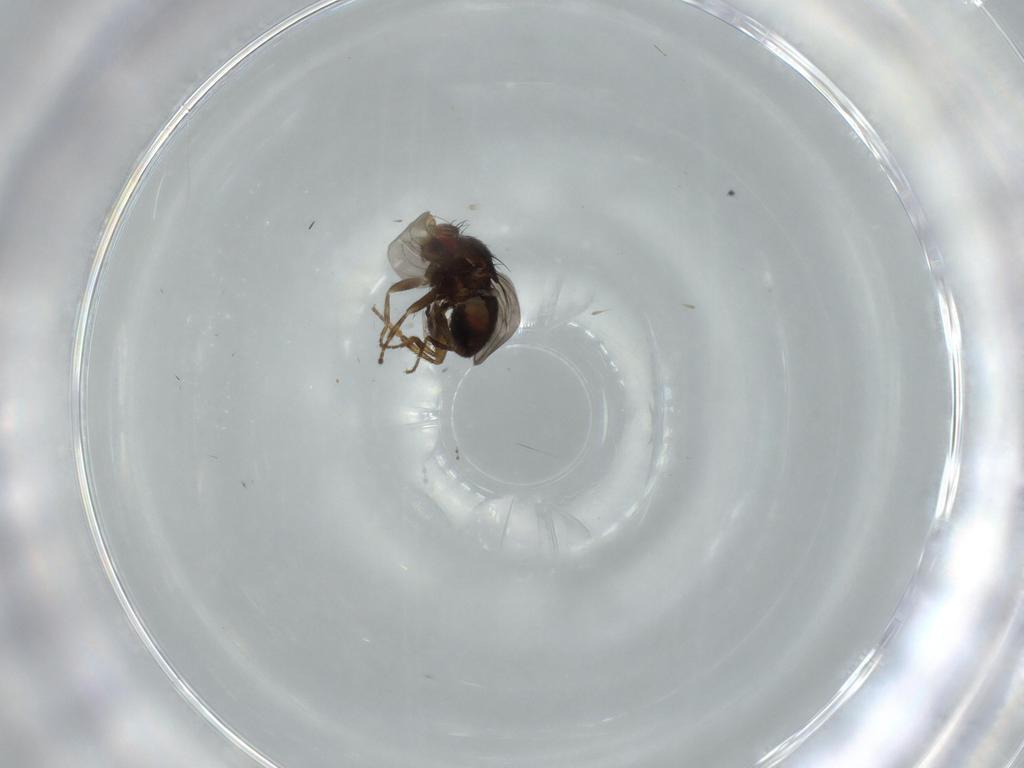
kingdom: Animalia
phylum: Arthropoda
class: Insecta
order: Diptera
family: Sphaeroceridae
